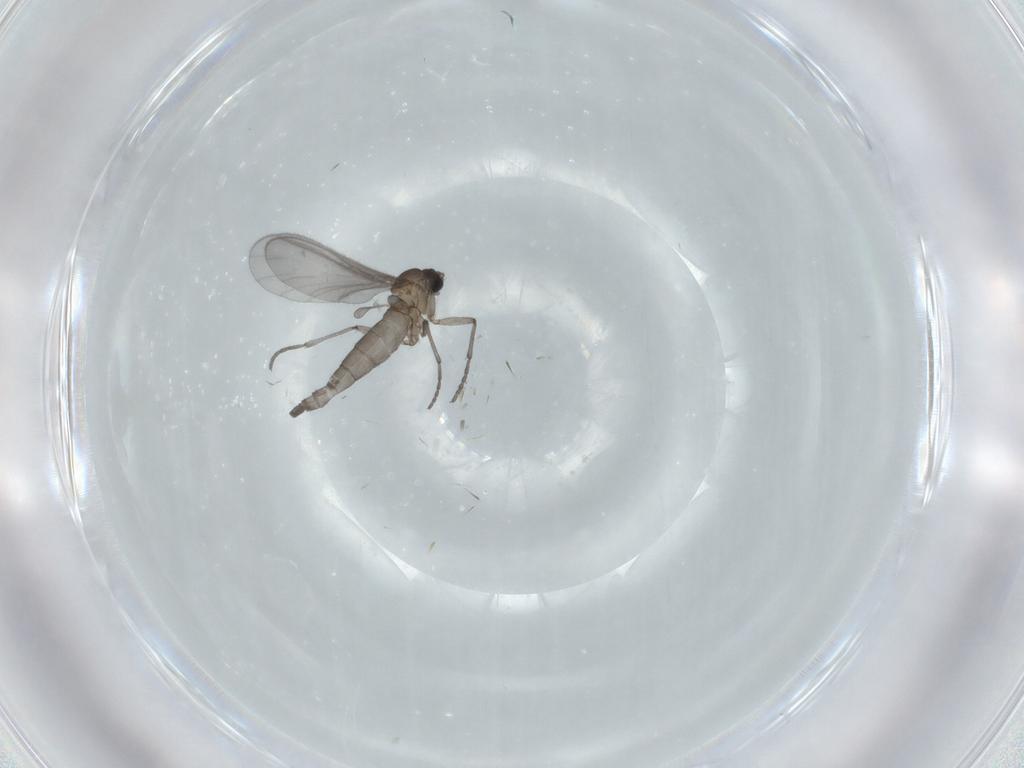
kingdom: Animalia
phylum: Arthropoda
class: Insecta
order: Diptera
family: Sciaridae
